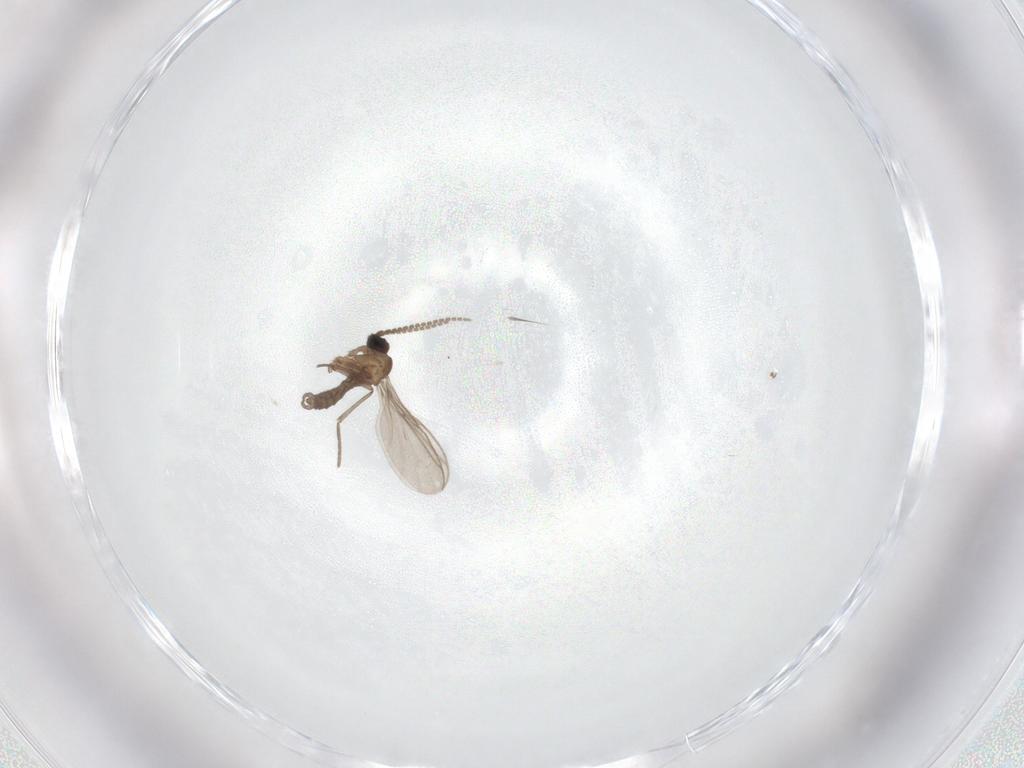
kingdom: Animalia
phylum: Arthropoda
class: Insecta
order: Diptera
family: Sciaridae
